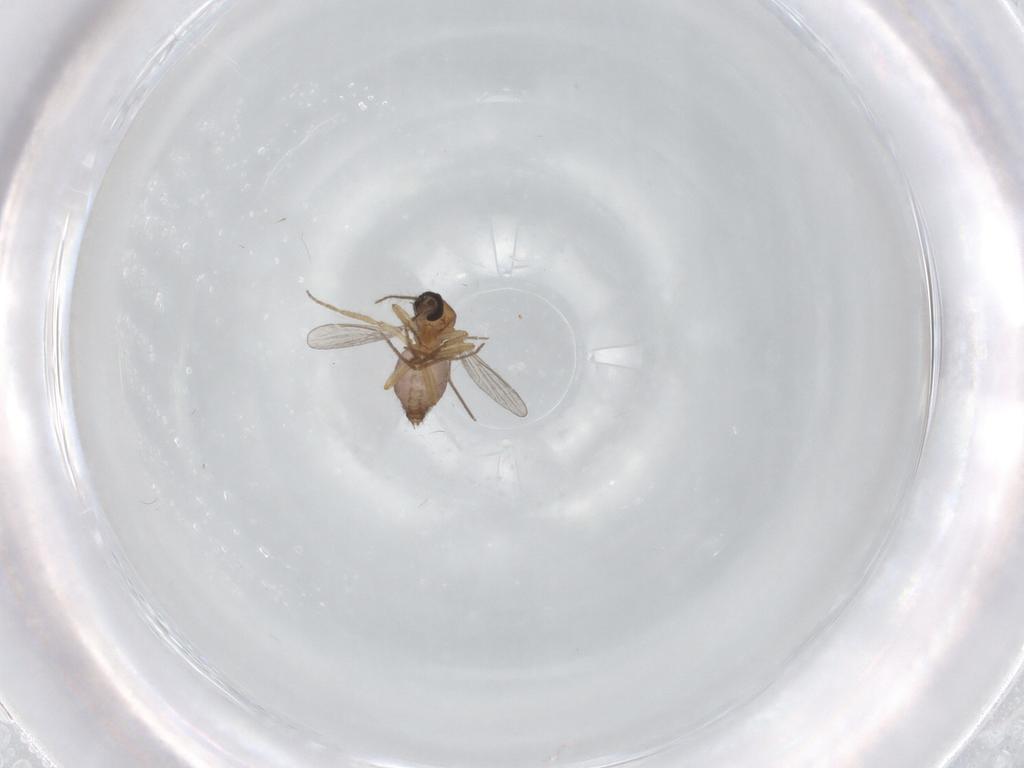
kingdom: Animalia
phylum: Arthropoda
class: Insecta
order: Diptera
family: Chironomidae
